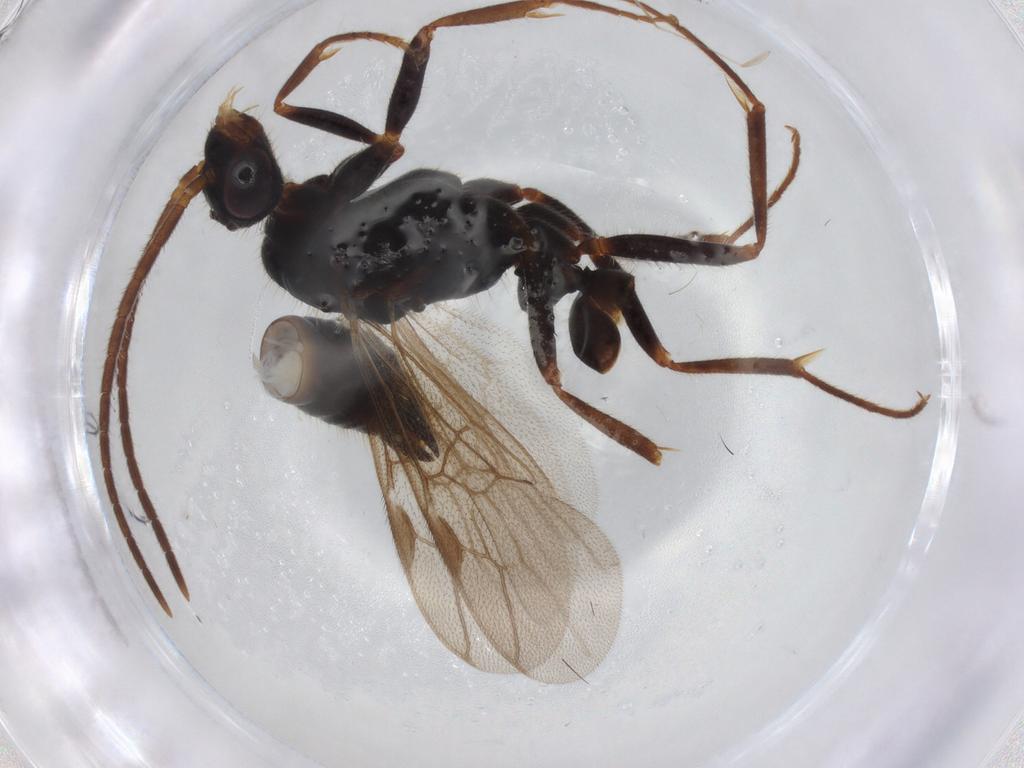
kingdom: Animalia
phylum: Arthropoda
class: Insecta
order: Hymenoptera
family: Formicidae
